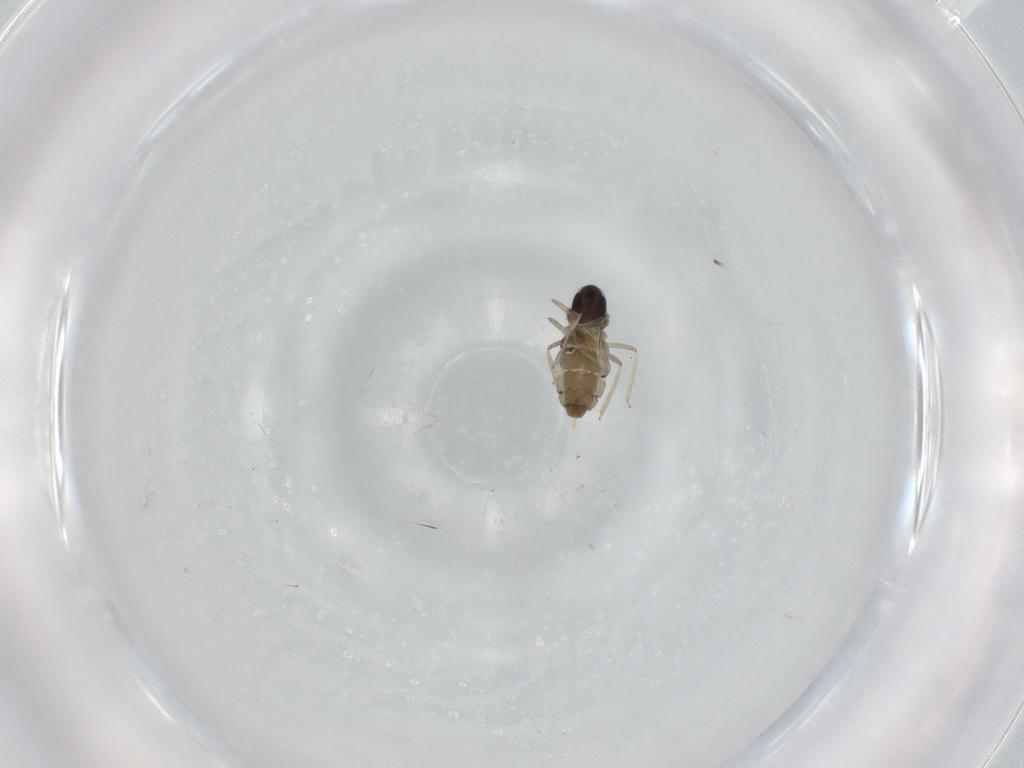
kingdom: Animalia
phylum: Arthropoda
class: Insecta
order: Diptera
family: Cecidomyiidae
